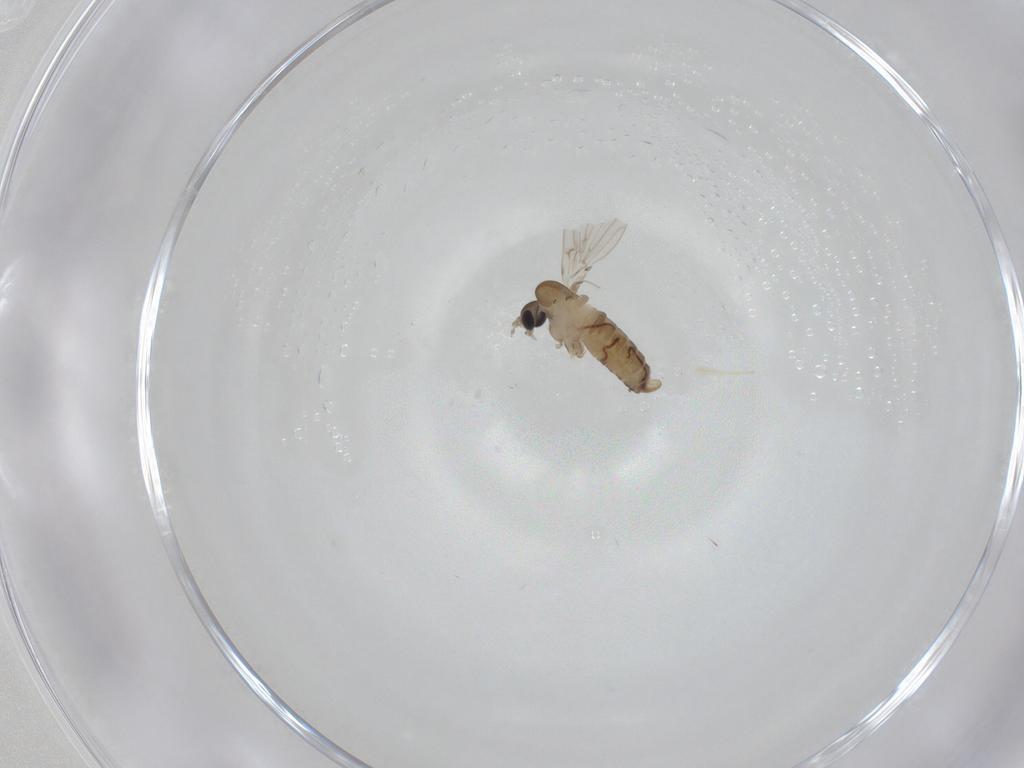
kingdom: Animalia
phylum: Arthropoda
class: Insecta
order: Diptera
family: Psychodidae
